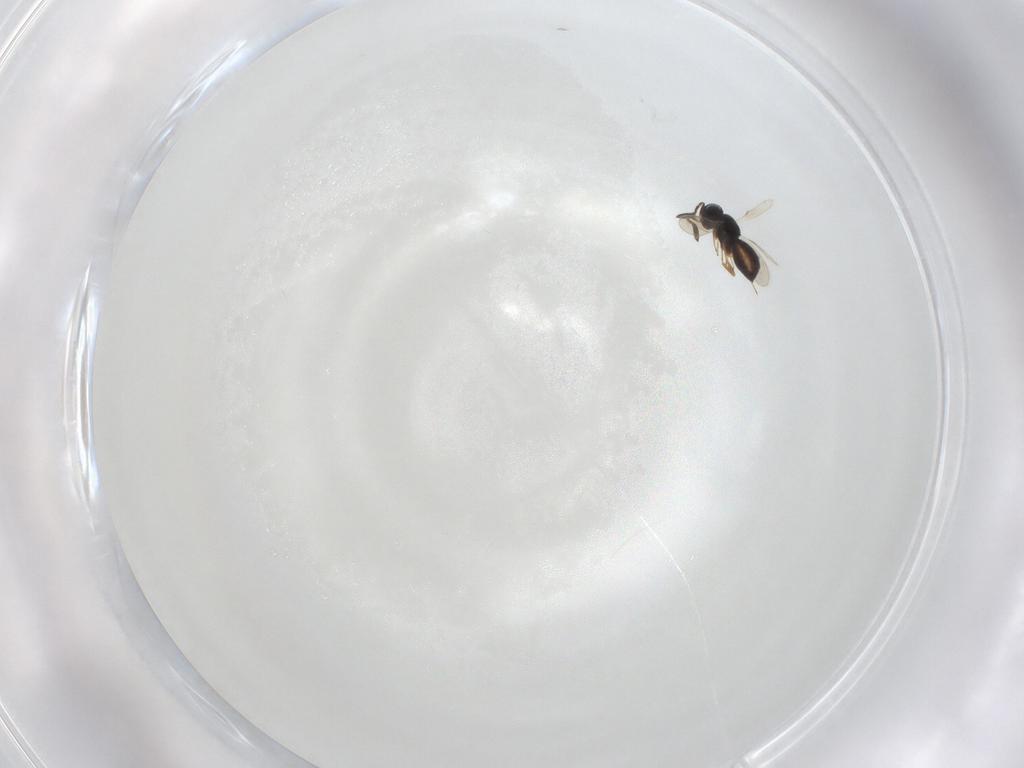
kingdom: Animalia
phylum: Arthropoda
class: Insecta
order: Hymenoptera
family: Scelionidae
